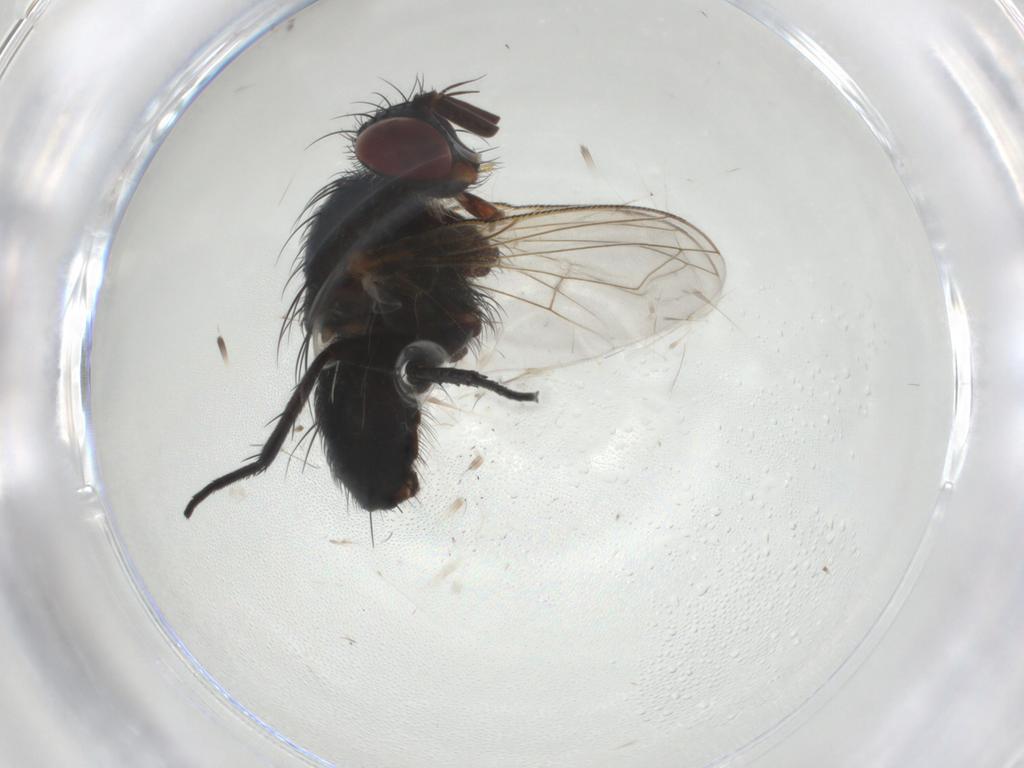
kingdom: Animalia
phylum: Arthropoda
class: Insecta
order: Diptera
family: Tachinidae
